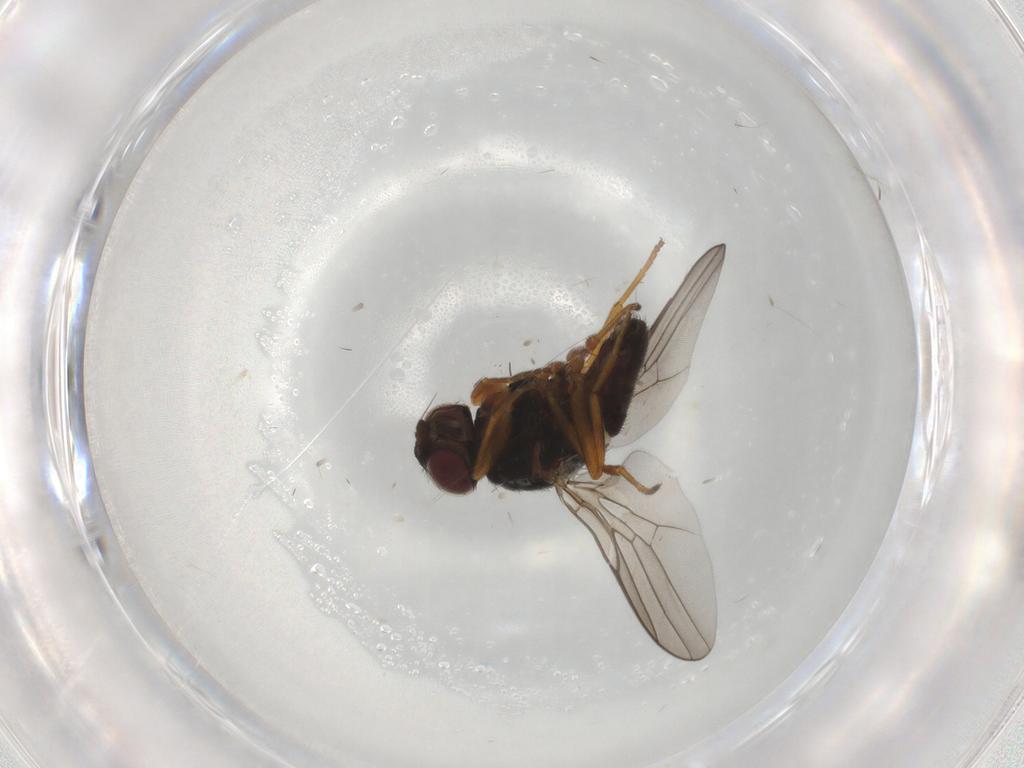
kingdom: Animalia
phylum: Arthropoda
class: Insecta
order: Diptera
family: Chloropidae
